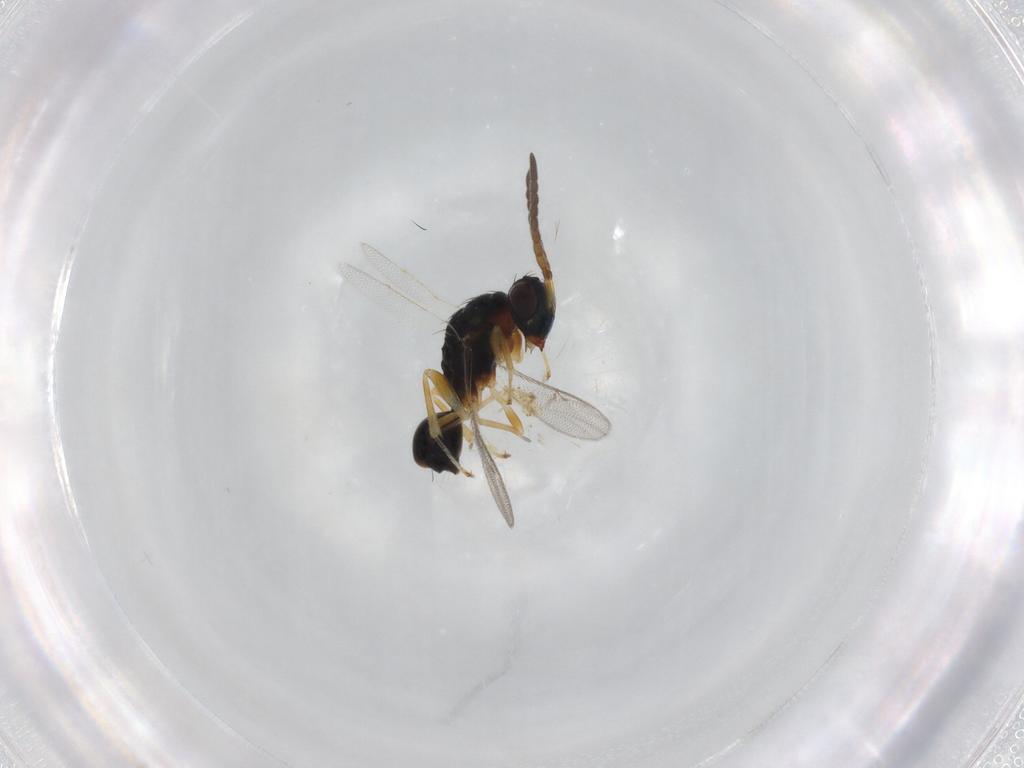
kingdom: Animalia
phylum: Arthropoda
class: Insecta
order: Hymenoptera
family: Diparidae
